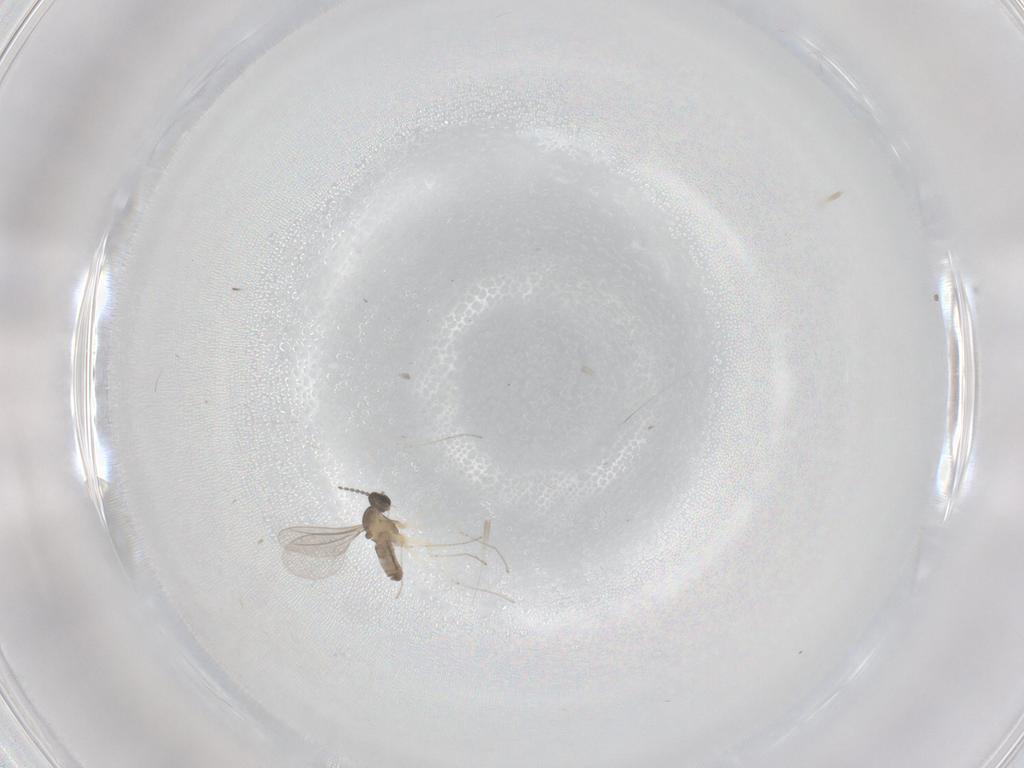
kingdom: Animalia
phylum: Arthropoda
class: Insecta
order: Diptera
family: Cecidomyiidae
